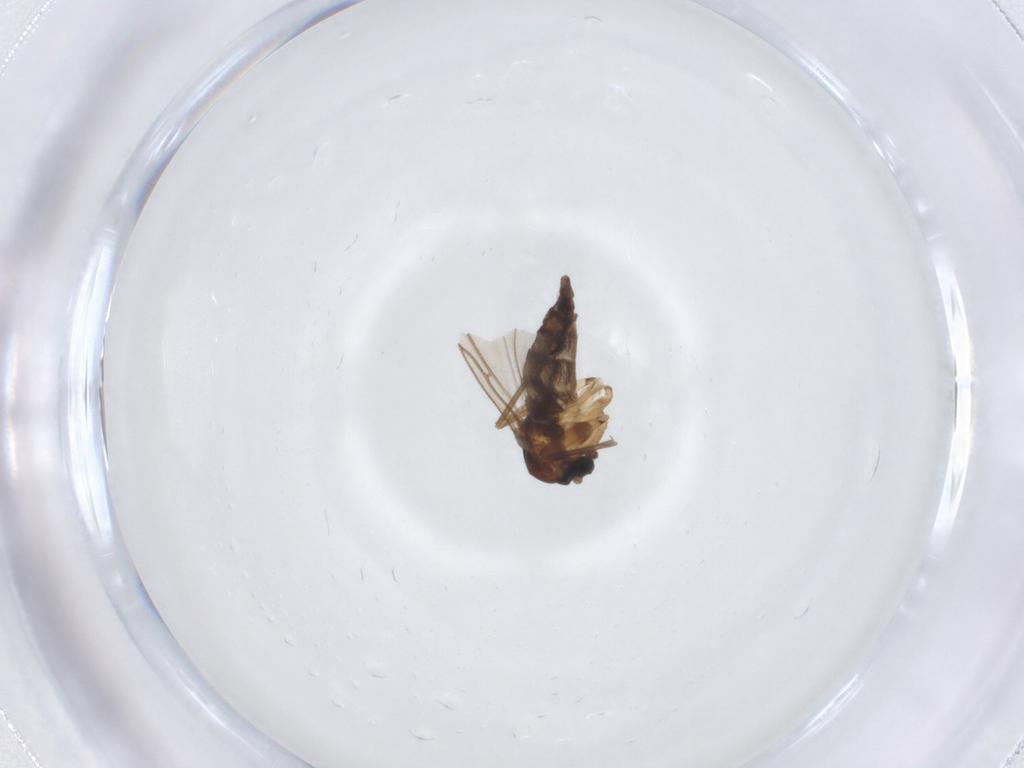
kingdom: Animalia
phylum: Arthropoda
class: Insecta
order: Diptera
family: Sciaridae
